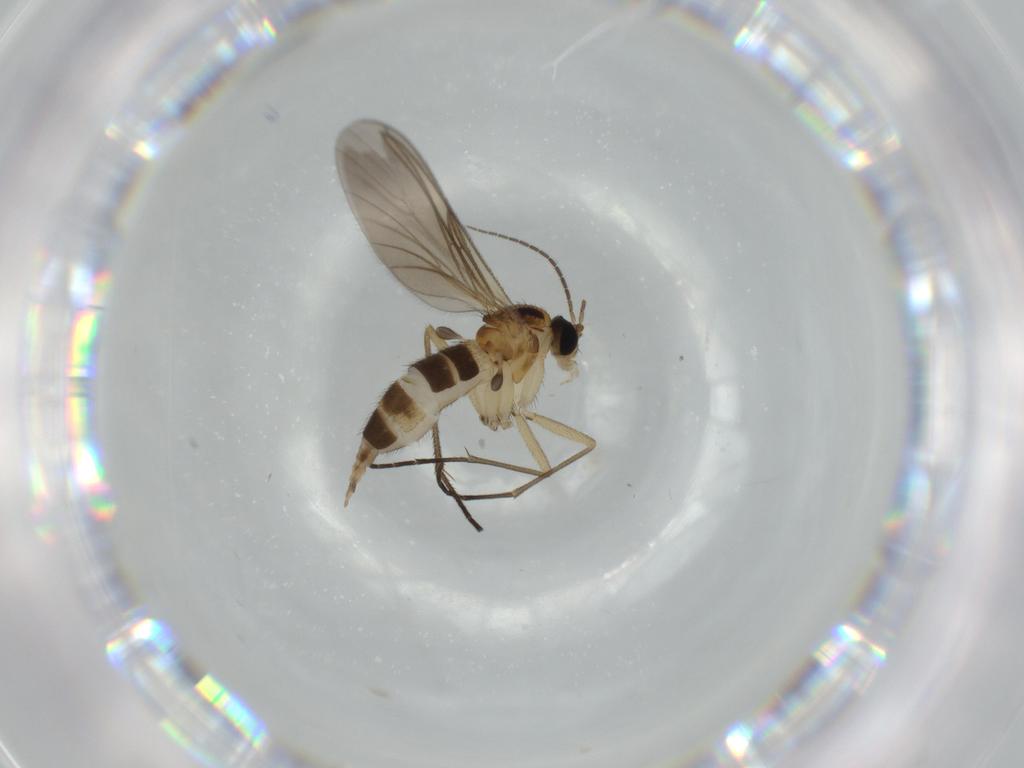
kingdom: Animalia
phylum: Arthropoda
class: Insecta
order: Diptera
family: Sciaridae
